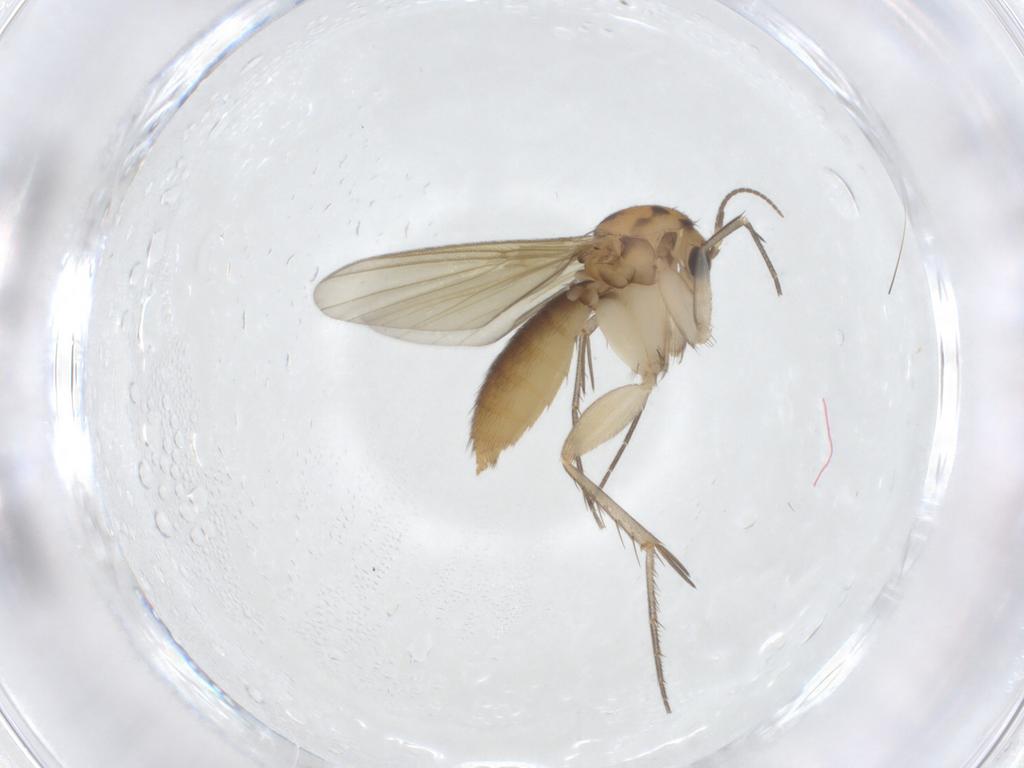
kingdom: Animalia
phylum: Arthropoda
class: Insecta
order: Diptera
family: Mycetophilidae
